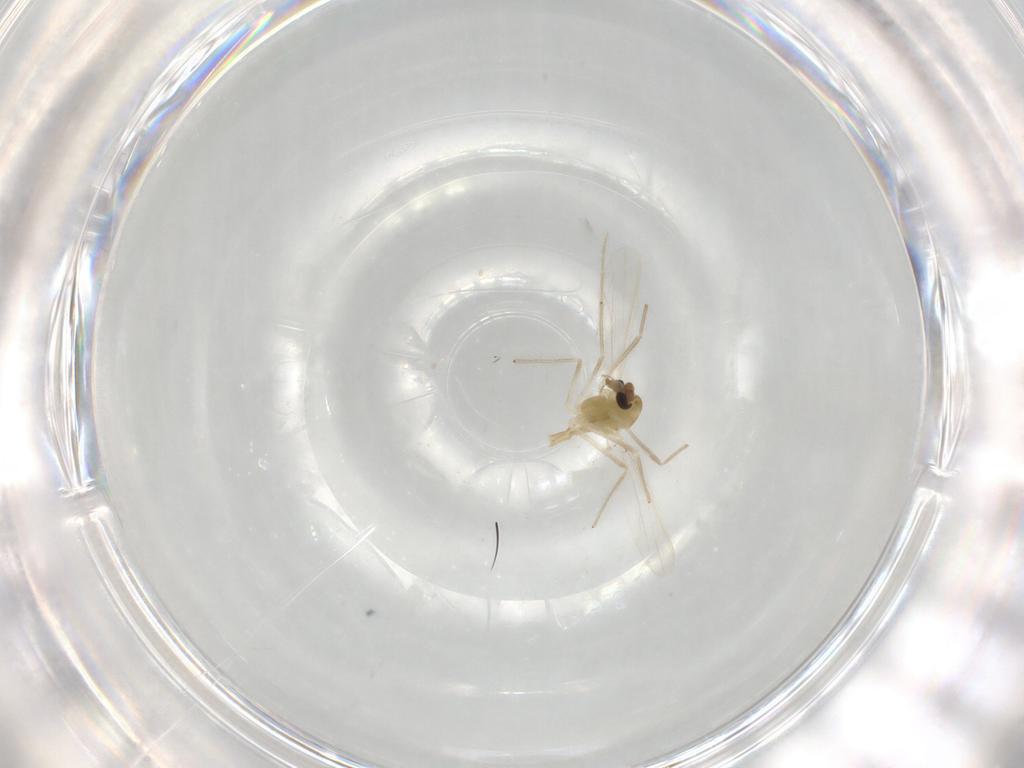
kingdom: Animalia
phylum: Arthropoda
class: Insecta
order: Diptera
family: Chironomidae
